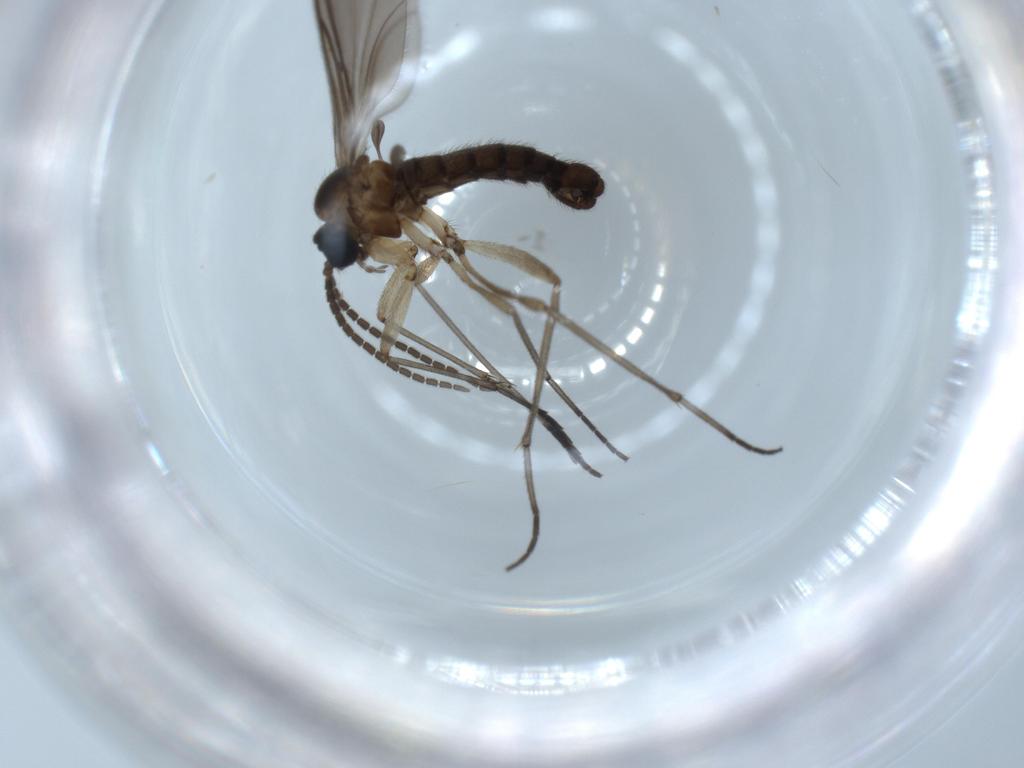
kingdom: Animalia
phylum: Arthropoda
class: Insecta
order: Diptera
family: Sciaridae
